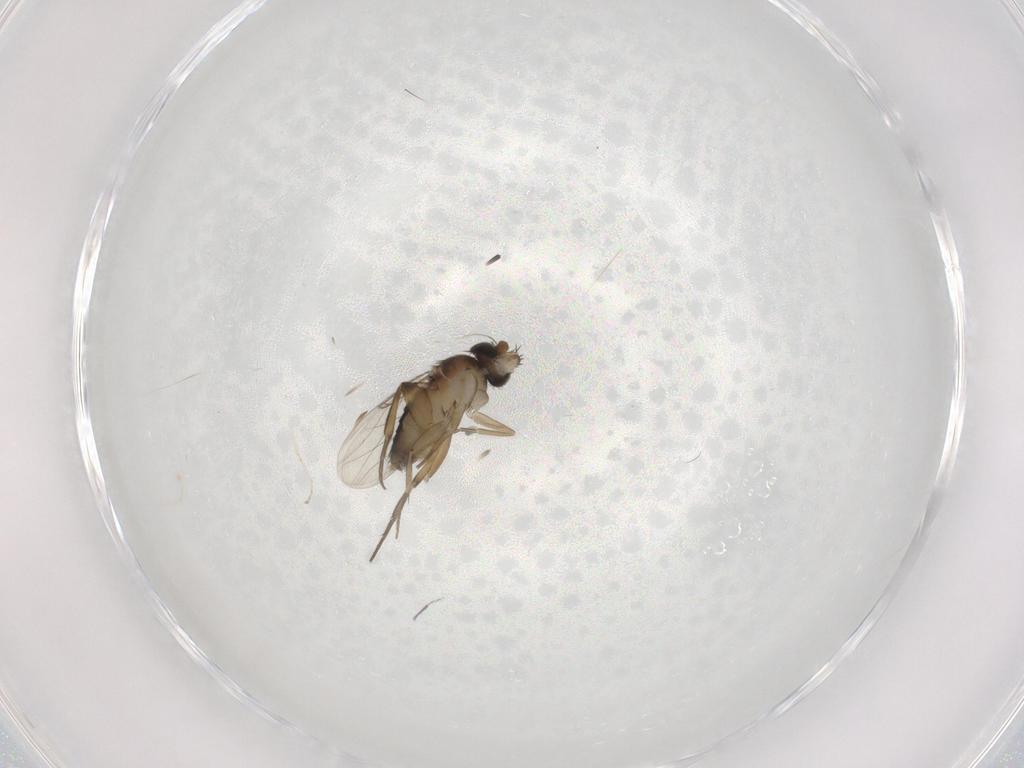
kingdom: Animalia
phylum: Arthropoda
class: Insecta
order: Diptera
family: Phoridae
